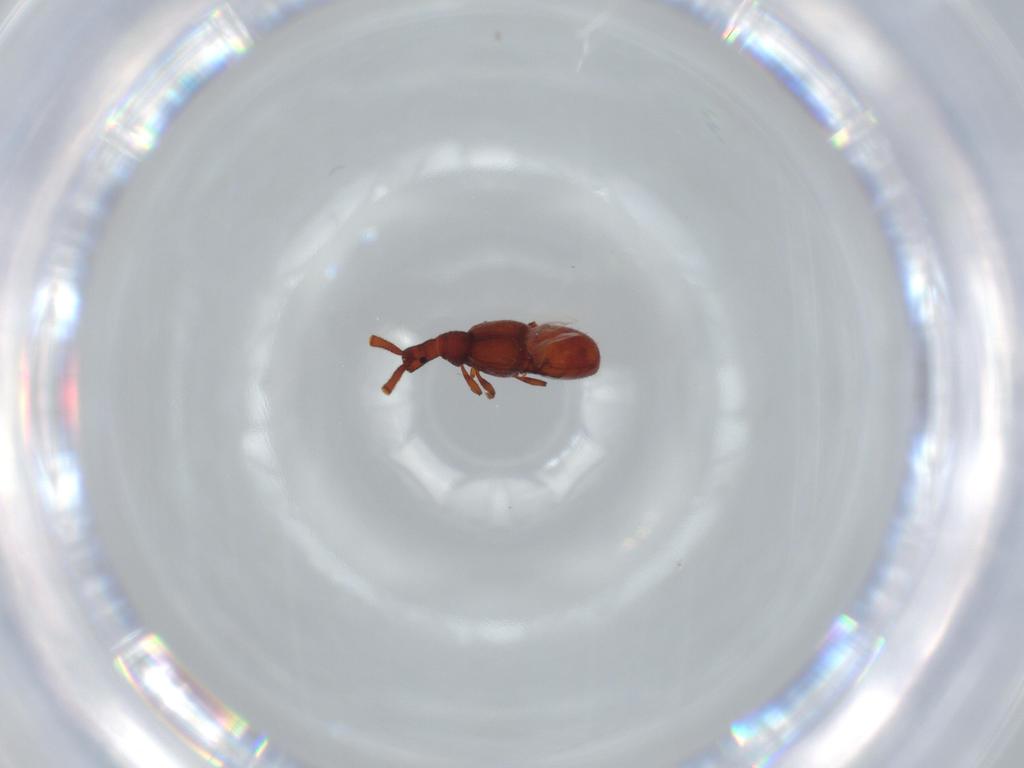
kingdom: Animalia
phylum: Arthropoda
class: Insecta
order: Coleoptera
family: Staphylinidae
